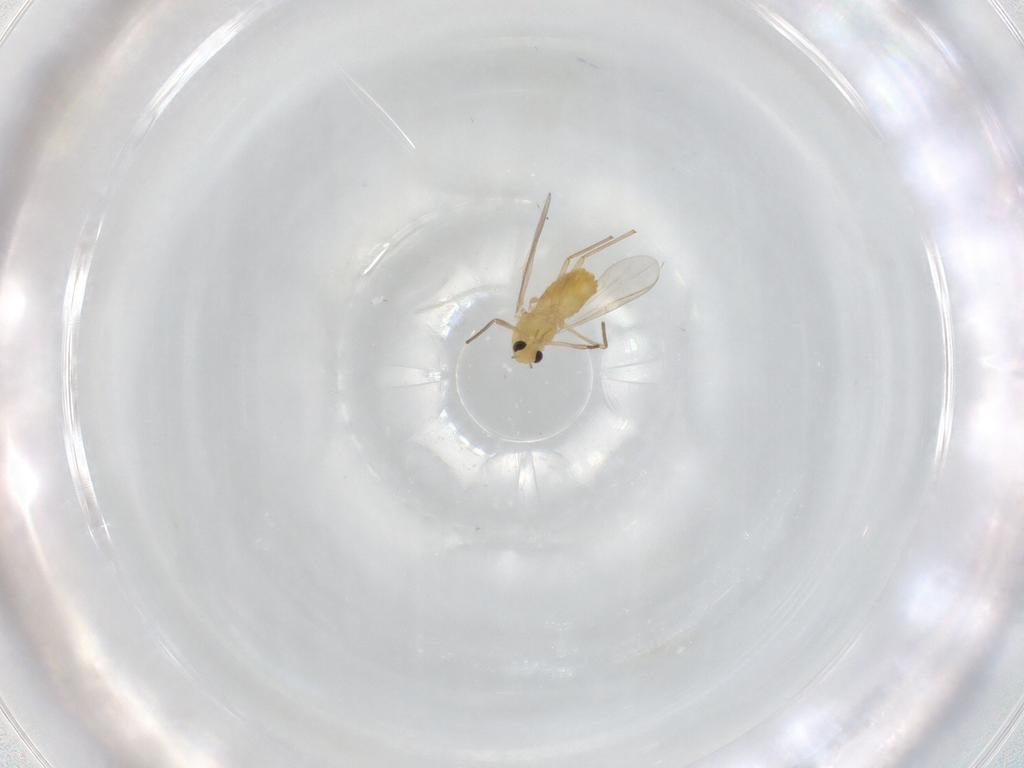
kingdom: Animalia
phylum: Arthropoda
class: Insecta
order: Diptera
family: Chironomidae
